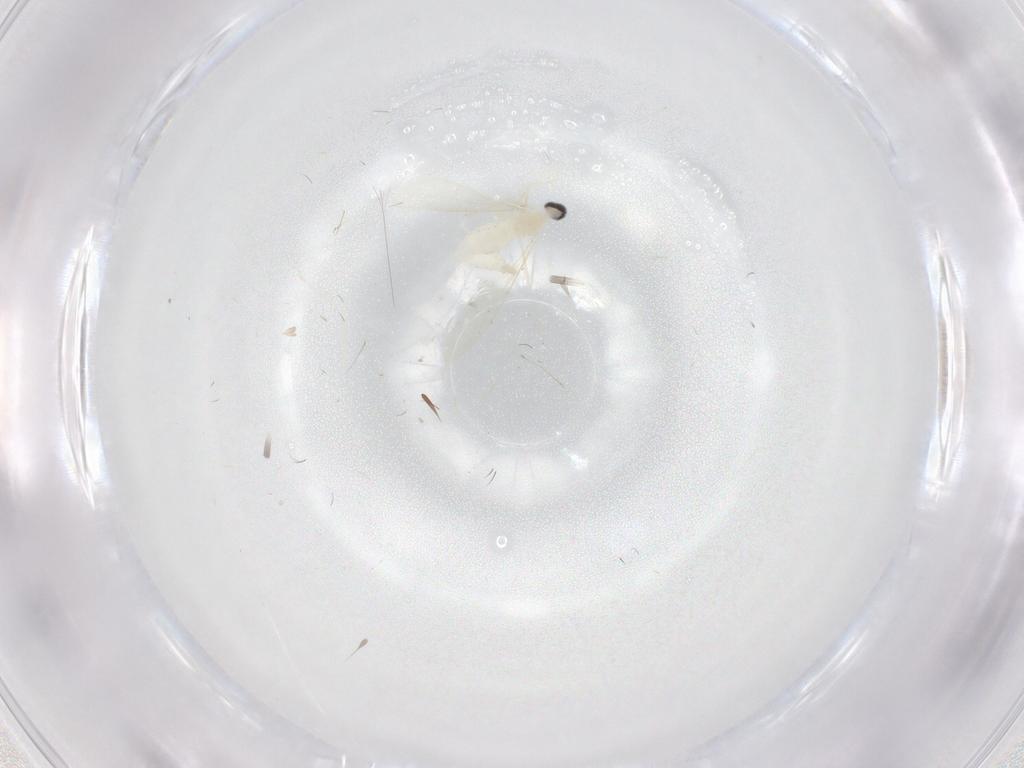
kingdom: Animalia
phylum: Arthropoda
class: Insecta
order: Diptera
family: Cecidomyiidae
